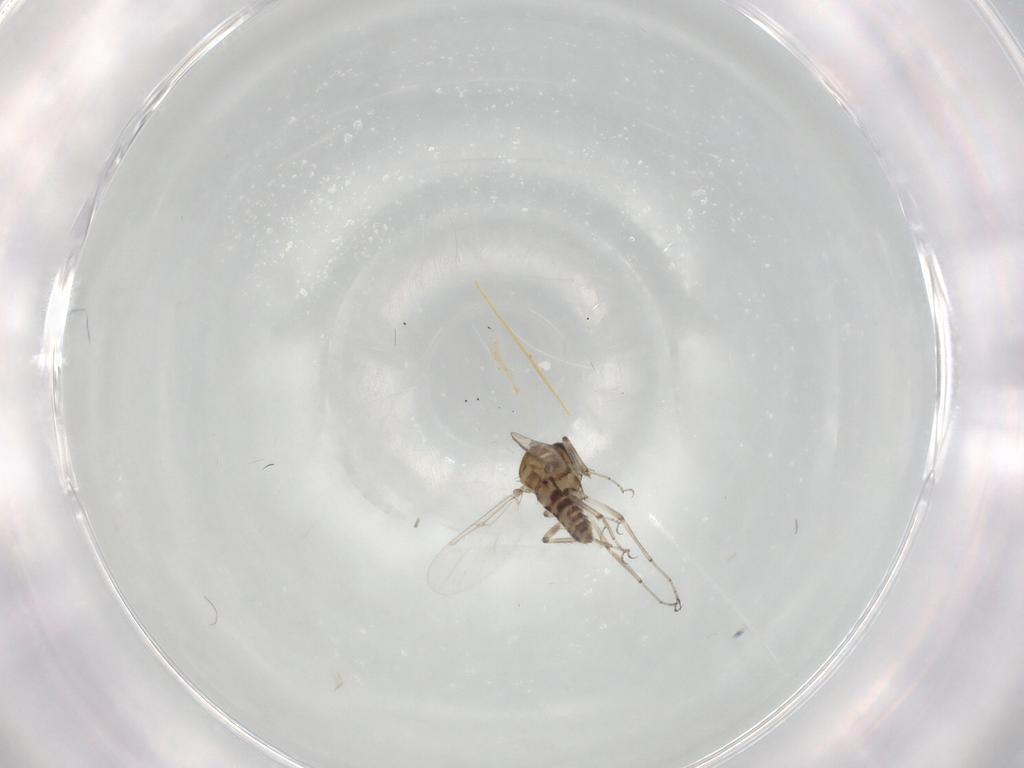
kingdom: Animalia
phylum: Arthropoda
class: Insecta
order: Diptera
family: Ceratopogonidae
